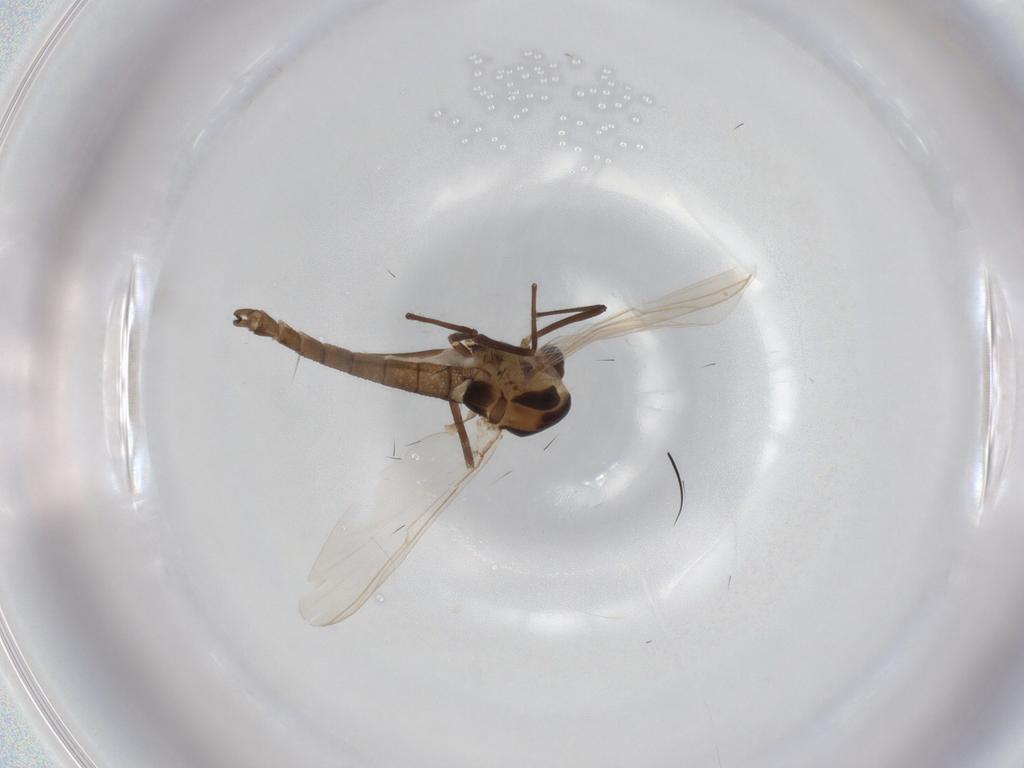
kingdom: Animalia
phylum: Arthropoda
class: Insecta
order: Diptera
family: Chironomidae
